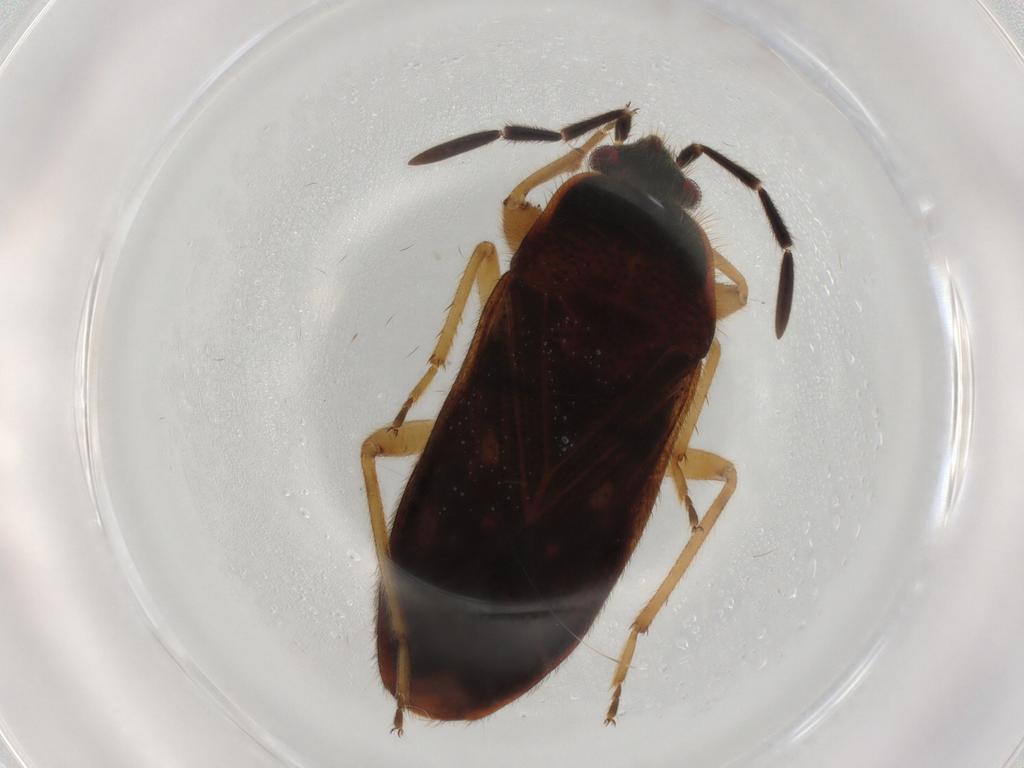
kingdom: Animalia
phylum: Arthropoda
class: Insecta
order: Hemiptera
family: Rhyparochromidae
